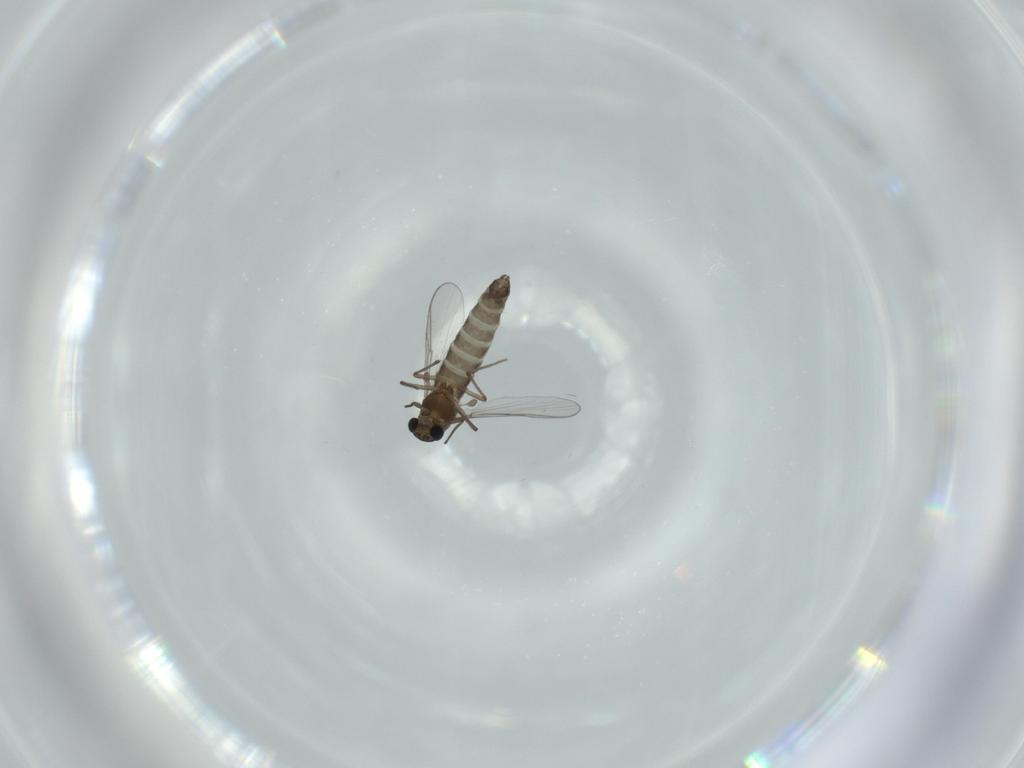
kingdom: Animalia
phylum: Arthropoda
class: Insecta
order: Diptera
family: Chironomidae
